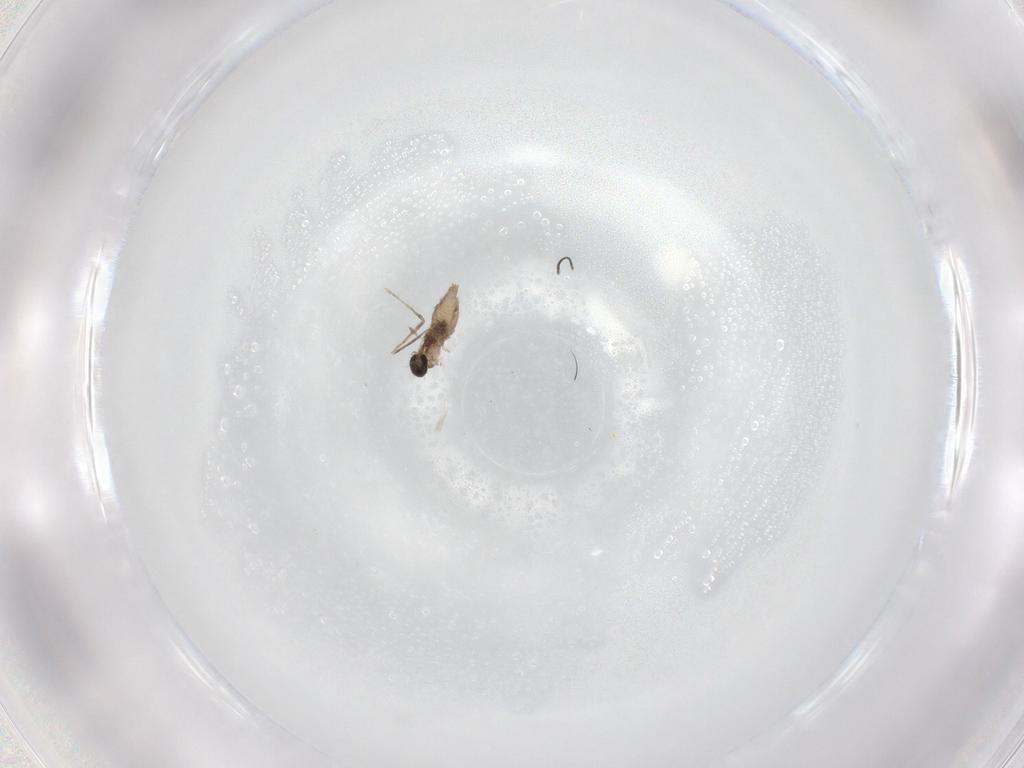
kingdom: Animalia
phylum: Arthropoda
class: Insecta
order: Diptera
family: Cecidomyiidae
